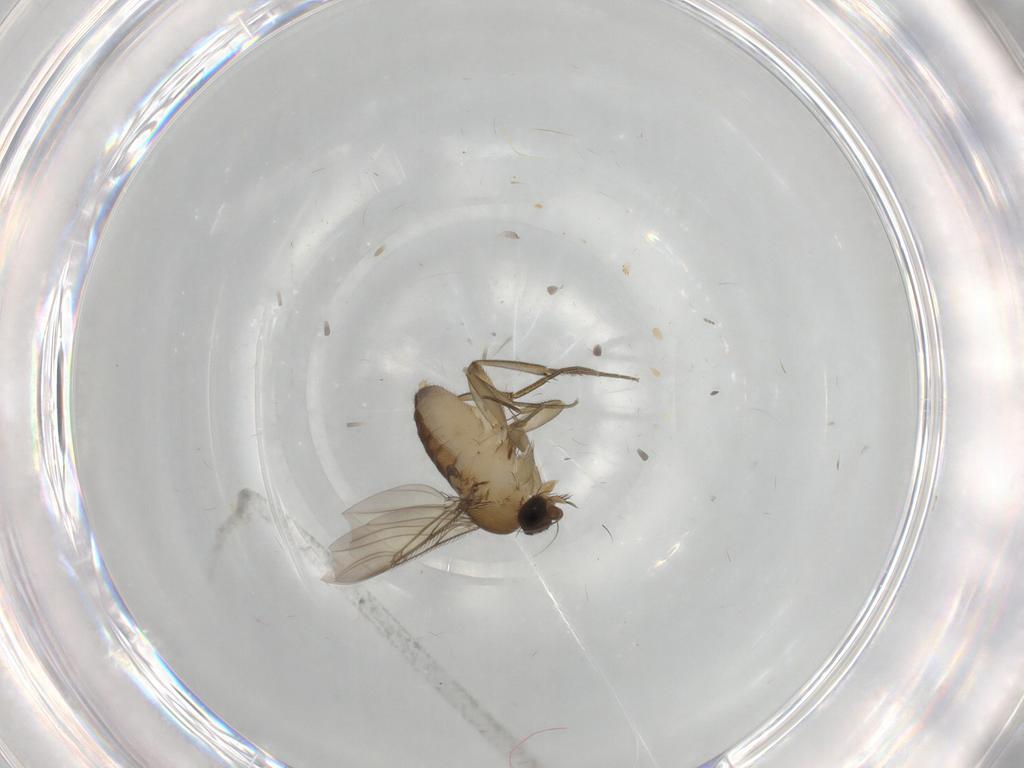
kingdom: Animalia
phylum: Arthropoda
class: Insecta
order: Diptera
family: Phoridae
